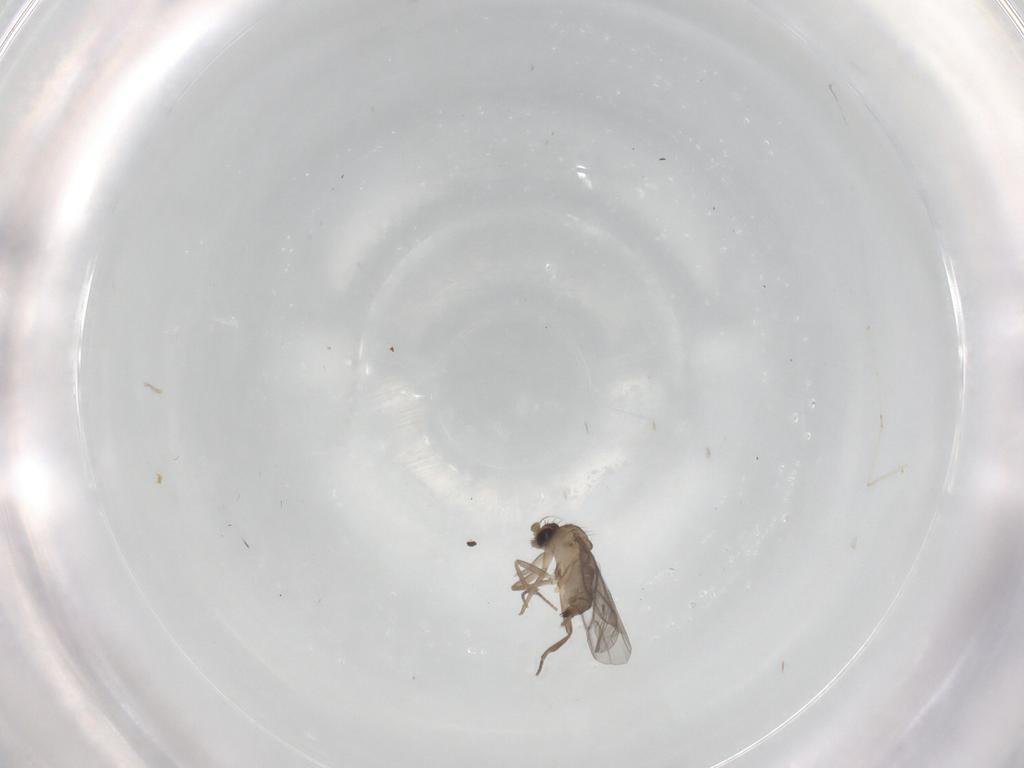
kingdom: Animalia
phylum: Arthropoda
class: Insecta
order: Diptera
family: Cecidomyiidae
